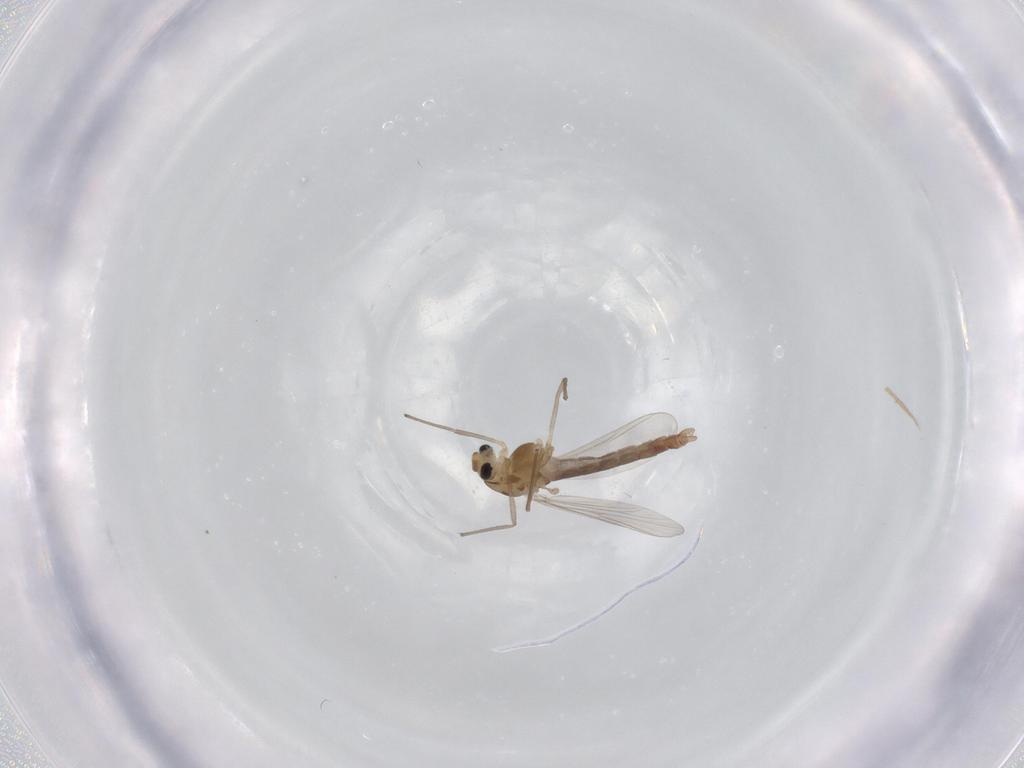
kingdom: Animalia
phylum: Arthropoda
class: Insecta
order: Diptera
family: Chironomidae
